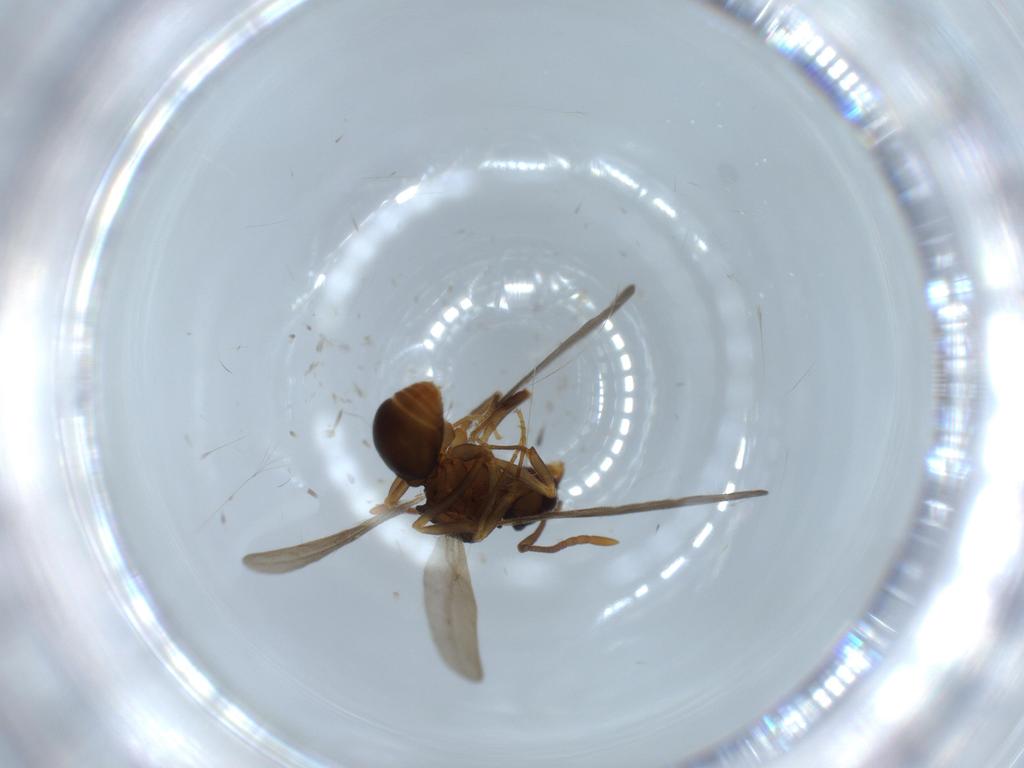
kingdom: Animalia
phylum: Arthropoda
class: Insecta
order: Hymenoptera
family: Formicidae
